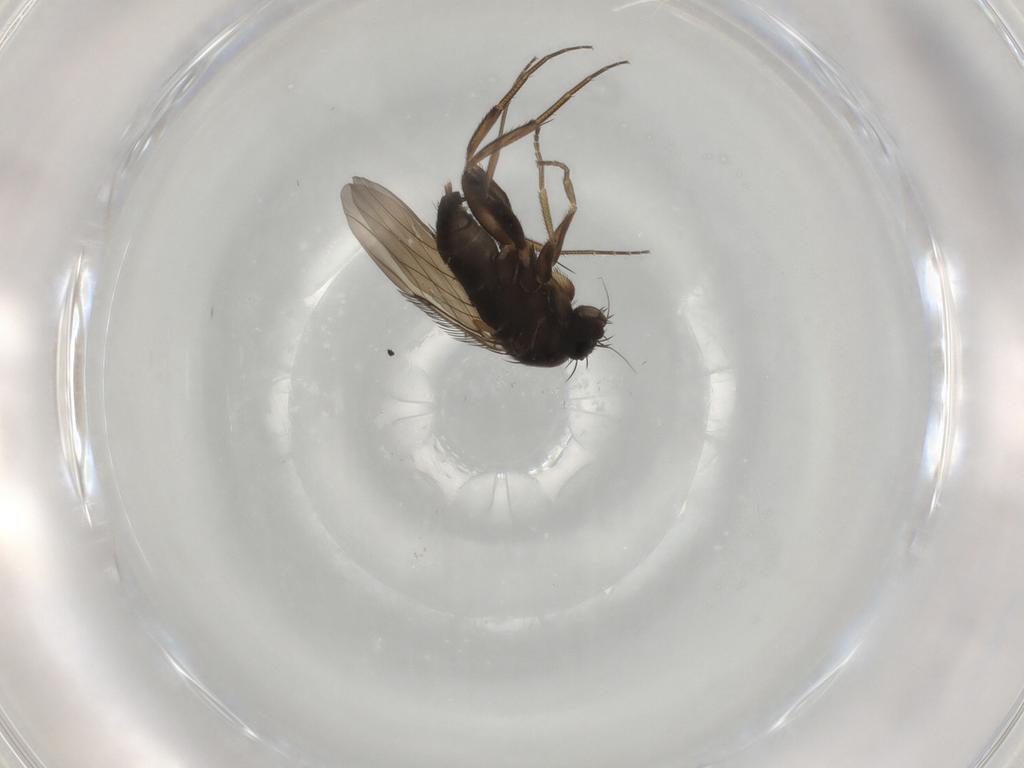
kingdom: Animalia
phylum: Arthropoda
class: Insecta
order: Diptera
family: Phoridae
